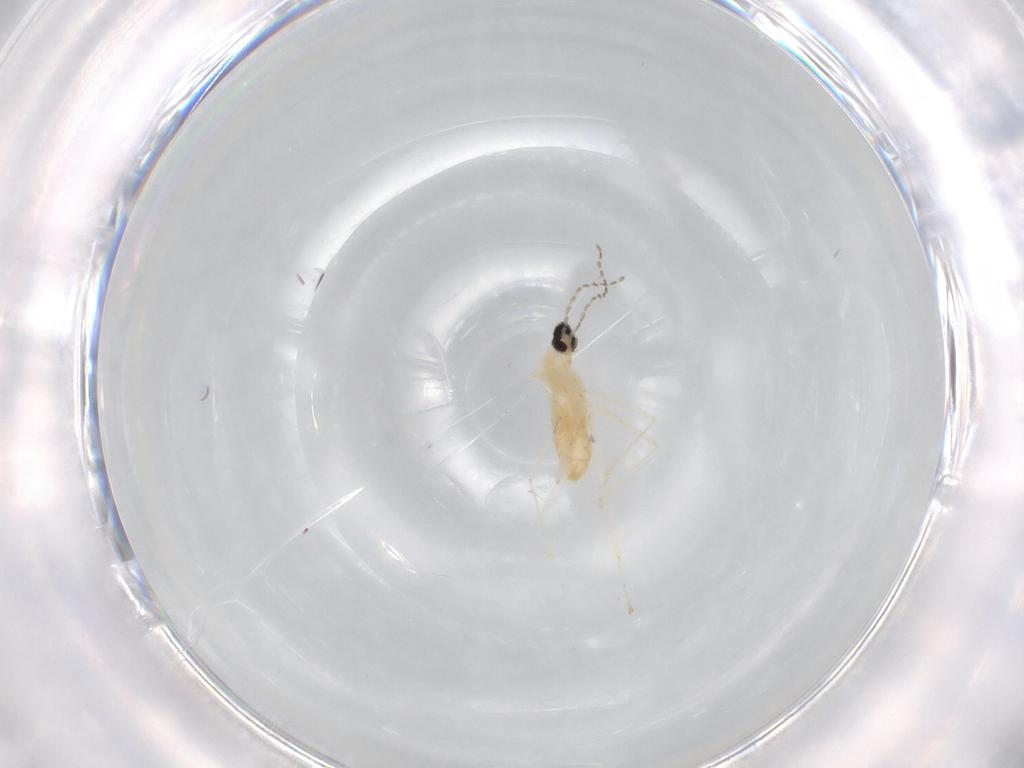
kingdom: Animalia
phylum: Arthropoda
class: Insecta
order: Diptera
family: Cecidomyiidae
